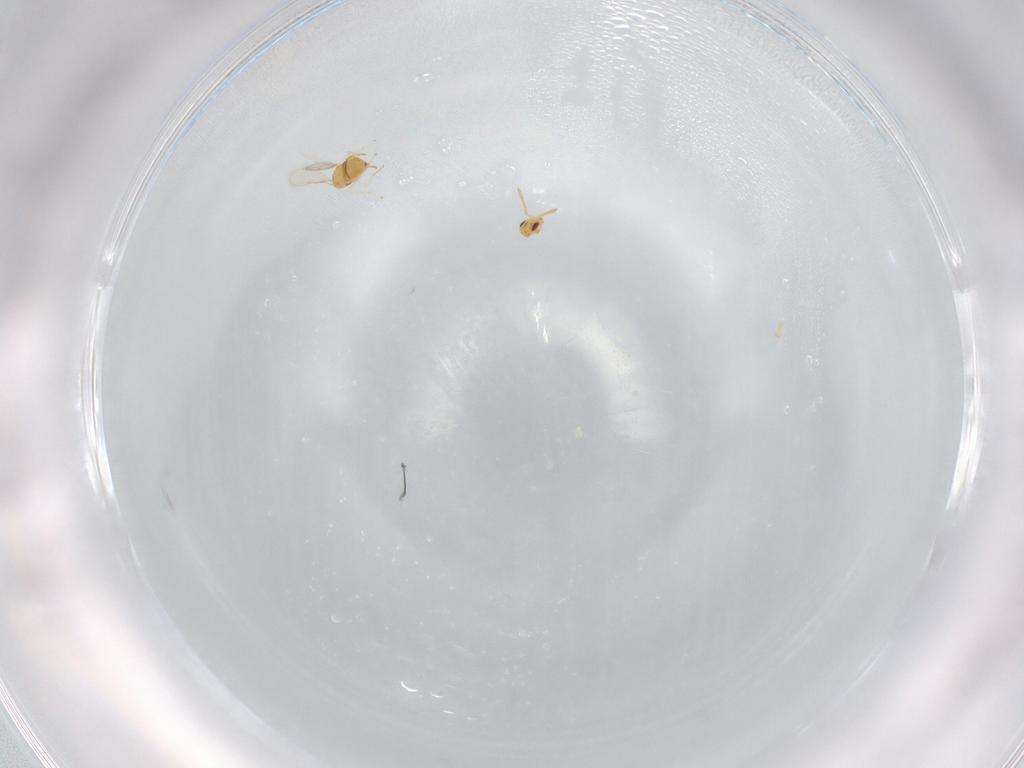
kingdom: Animalia
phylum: Arthropoda
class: Insecta
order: Hymenoptera
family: Aphelinidae
